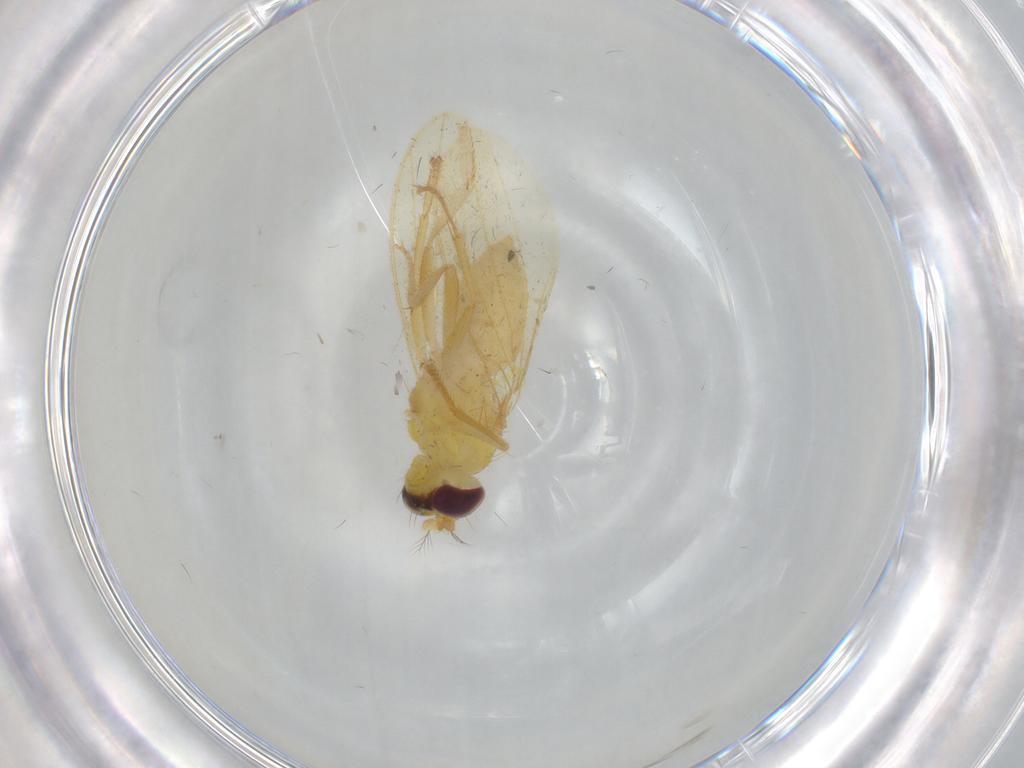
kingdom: Animalia
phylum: Arthropoda
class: Insecta
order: Diptera
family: Periscelididae
